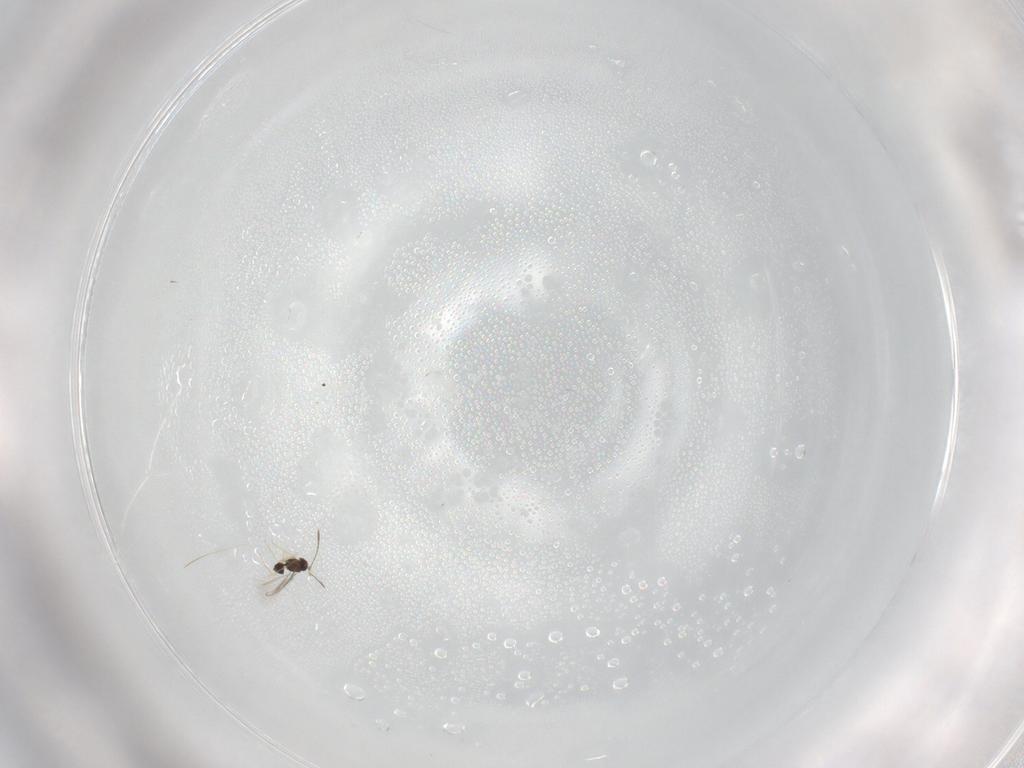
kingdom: Animalia
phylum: Arthropoda
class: Insecta
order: Hymenoptera
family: Mymaridae
